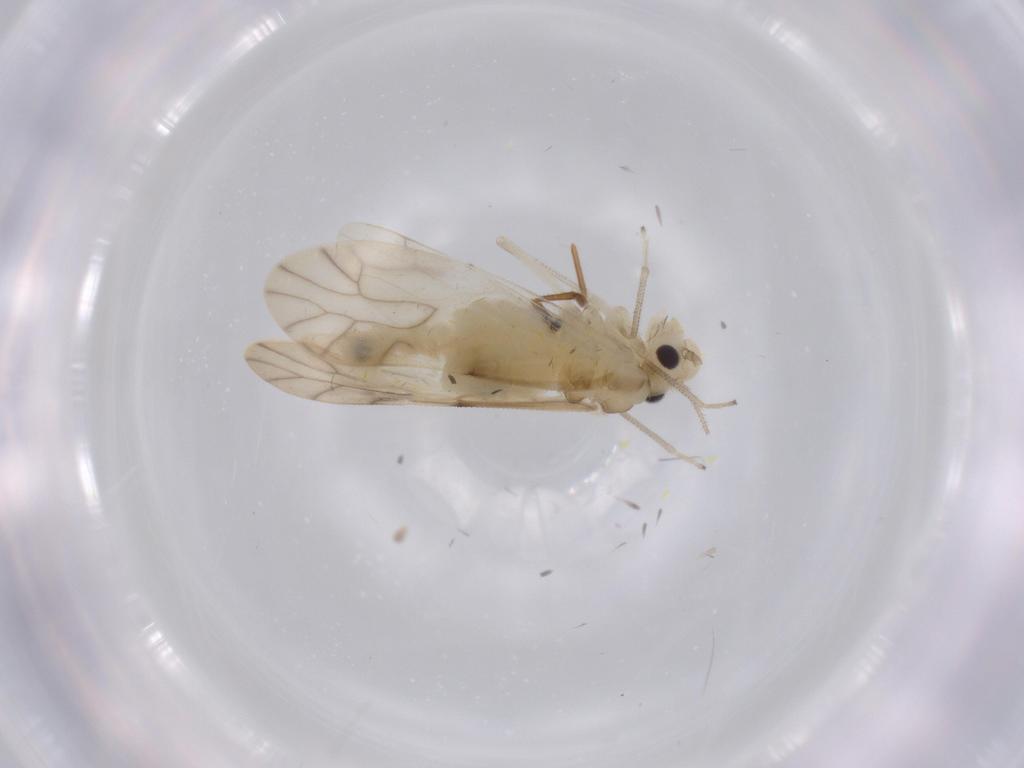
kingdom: Animalia
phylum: Arthropoda
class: Insecta
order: Psocodea
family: Caeciliusidae
